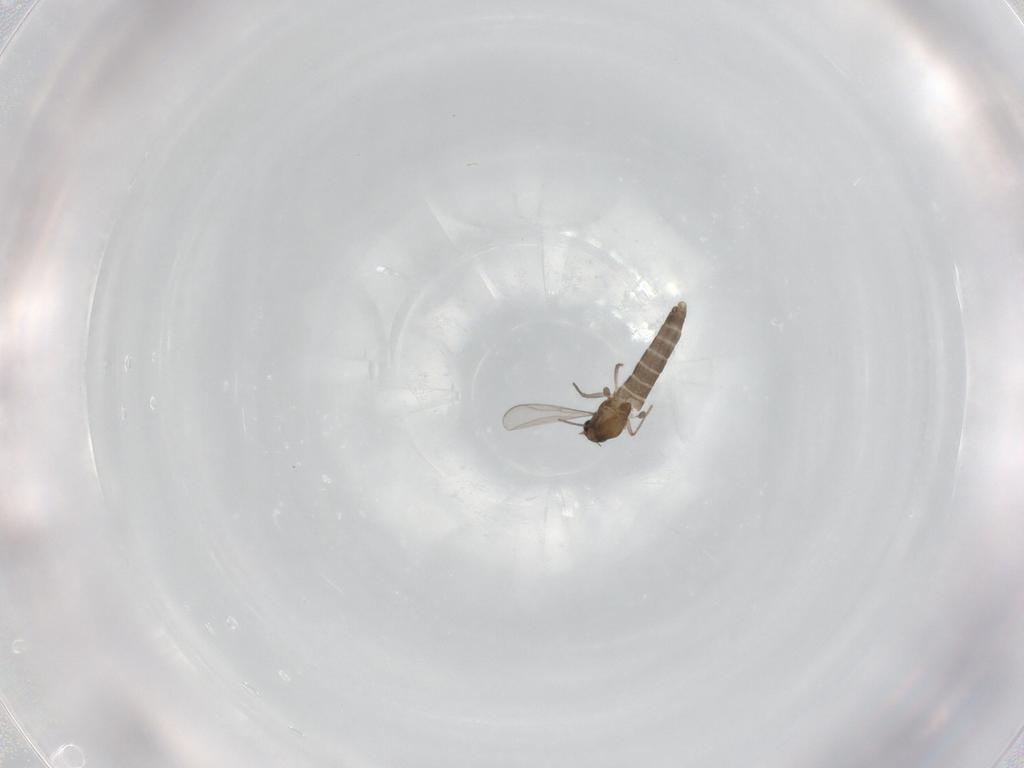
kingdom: Animalia
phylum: Arthropoda
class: Insecta
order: Diptera
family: Chironomidae
